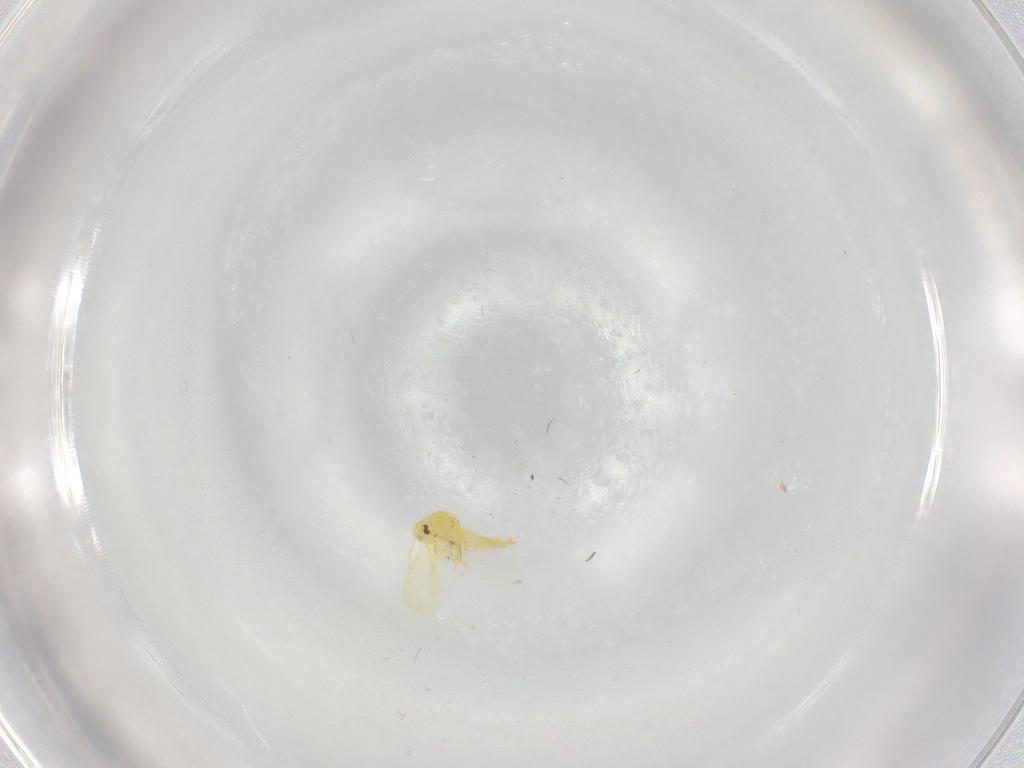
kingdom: Animalia
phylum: Arthropoda
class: Insecta
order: Hemiptera
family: Aleyrodidae
